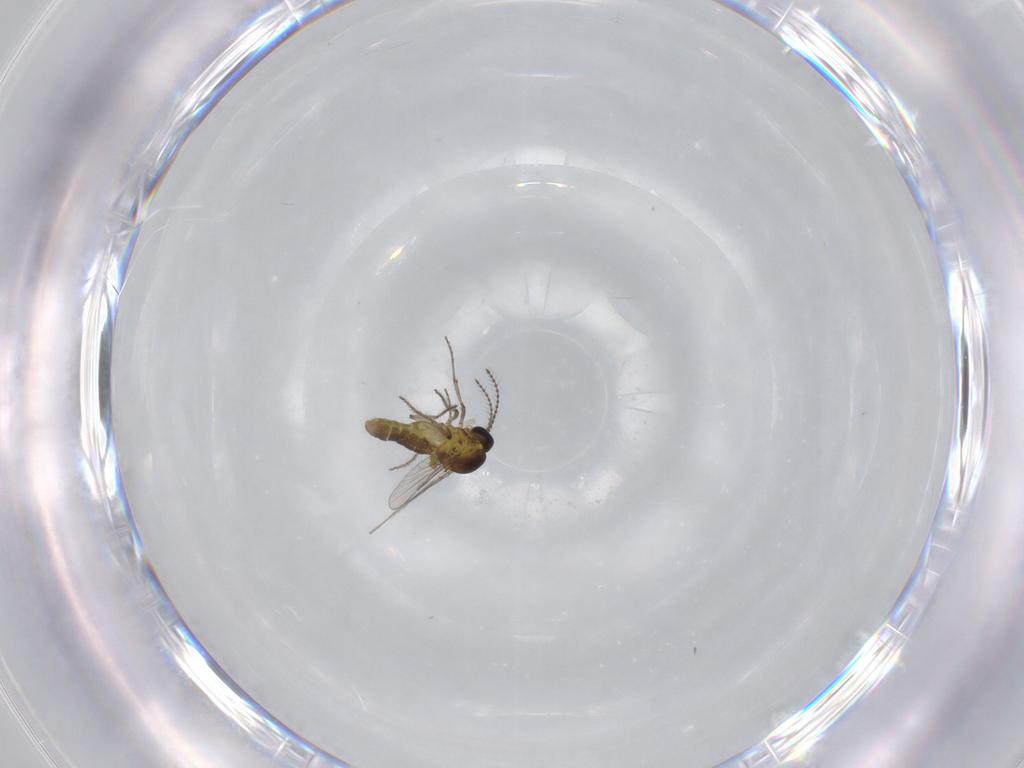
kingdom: Animalia
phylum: Arthropoda
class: Insecta
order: Diptera
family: Ceratopogonidae
